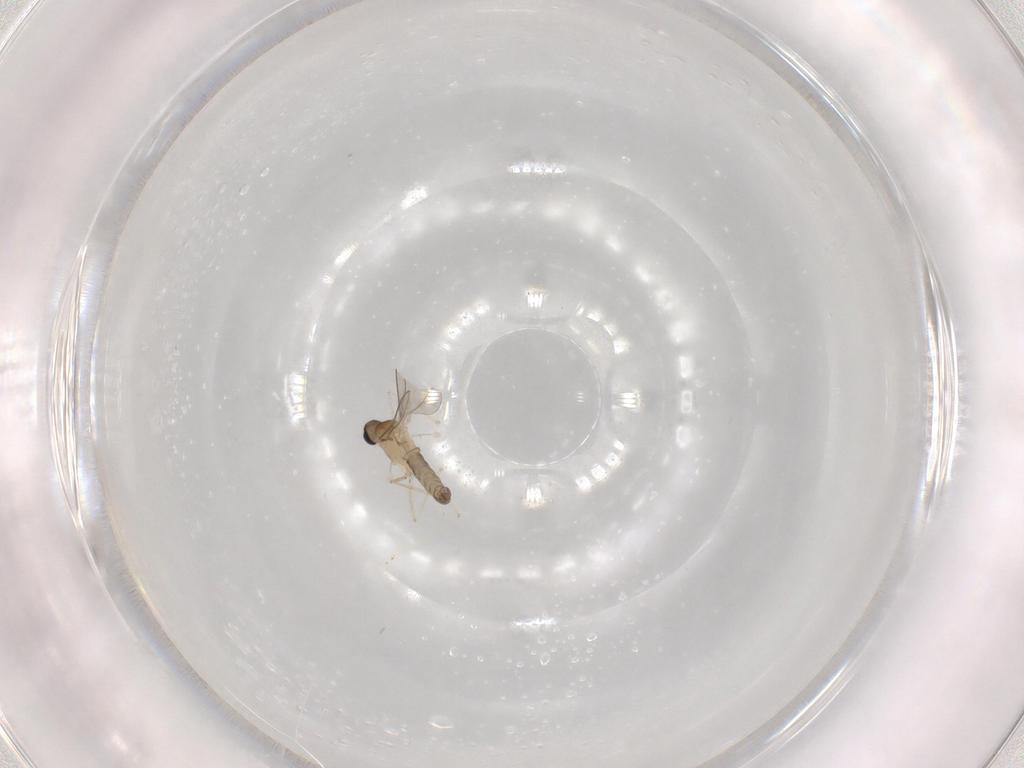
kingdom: Animalia
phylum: Arthropoda
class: Insecta
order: Diptera
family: Cecidomyiidae
